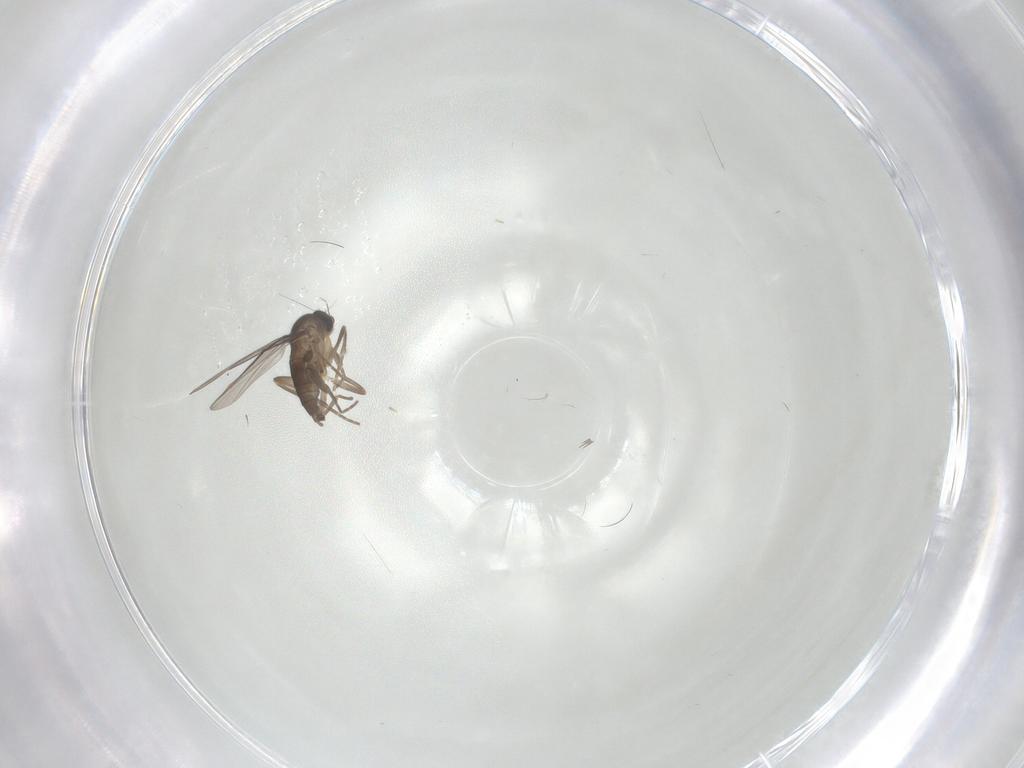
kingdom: Animalia
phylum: Arthropoda
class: Insecta
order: Diptera
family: Phoridae
